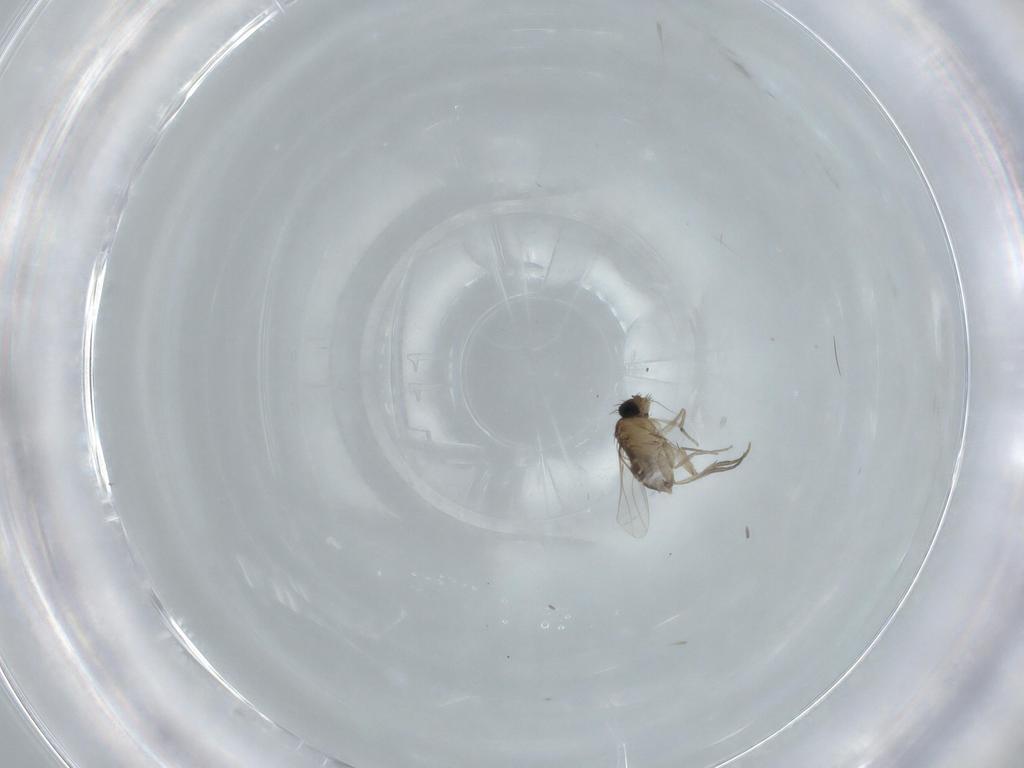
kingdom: Animalia
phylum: Arthropoda
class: Insecta
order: Diptera
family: Phoridae
